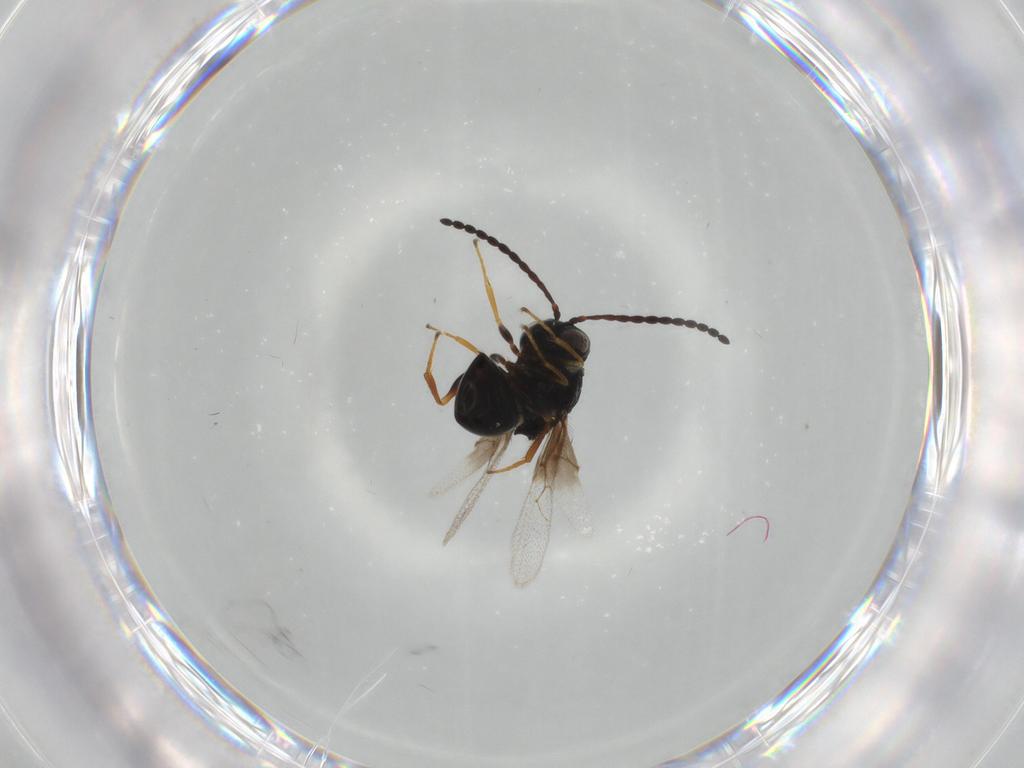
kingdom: Animalia
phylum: Arthropoda
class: Insecta
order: Hymenoptera
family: Figitidae
